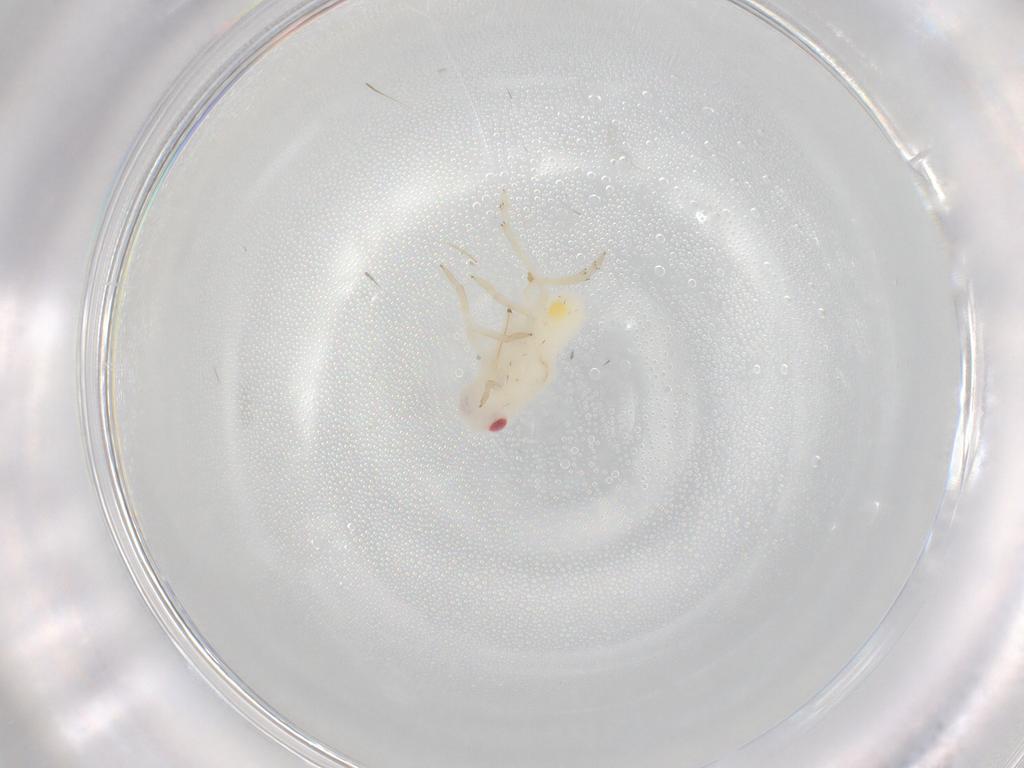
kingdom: Animalia
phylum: Arthropoda
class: Insecta
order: Hemiptera
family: Tropiduchidae
